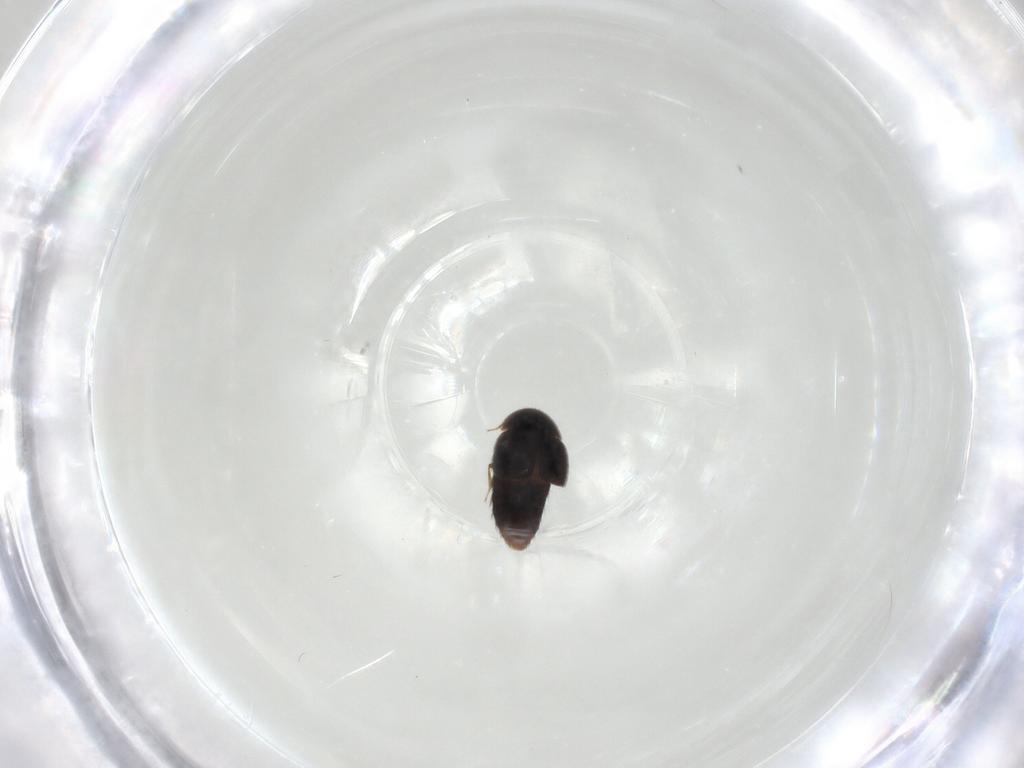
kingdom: Animalia
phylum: Arthropoda
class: Insecta
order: Coleoptera
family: Staphylinidae
